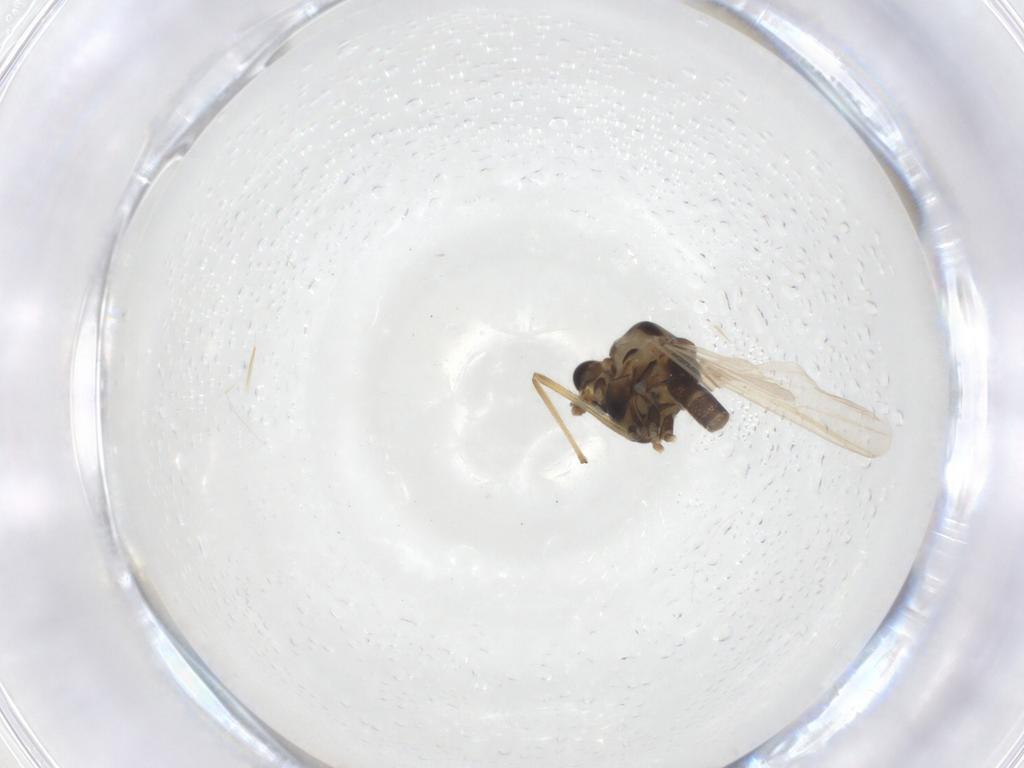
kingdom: Animalia
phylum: Arthropoda
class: Insecta
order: Diptera
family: Chironomidae
